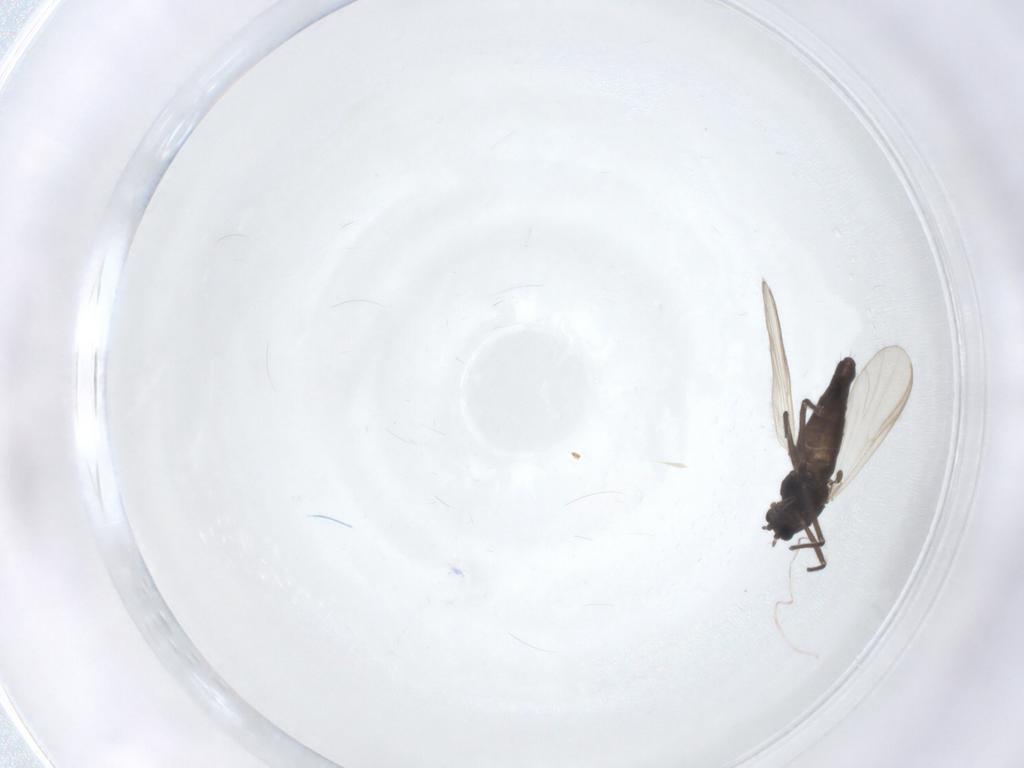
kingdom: Animalia
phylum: Arthropoda
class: Insecta
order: Diptera
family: Chironomidae
